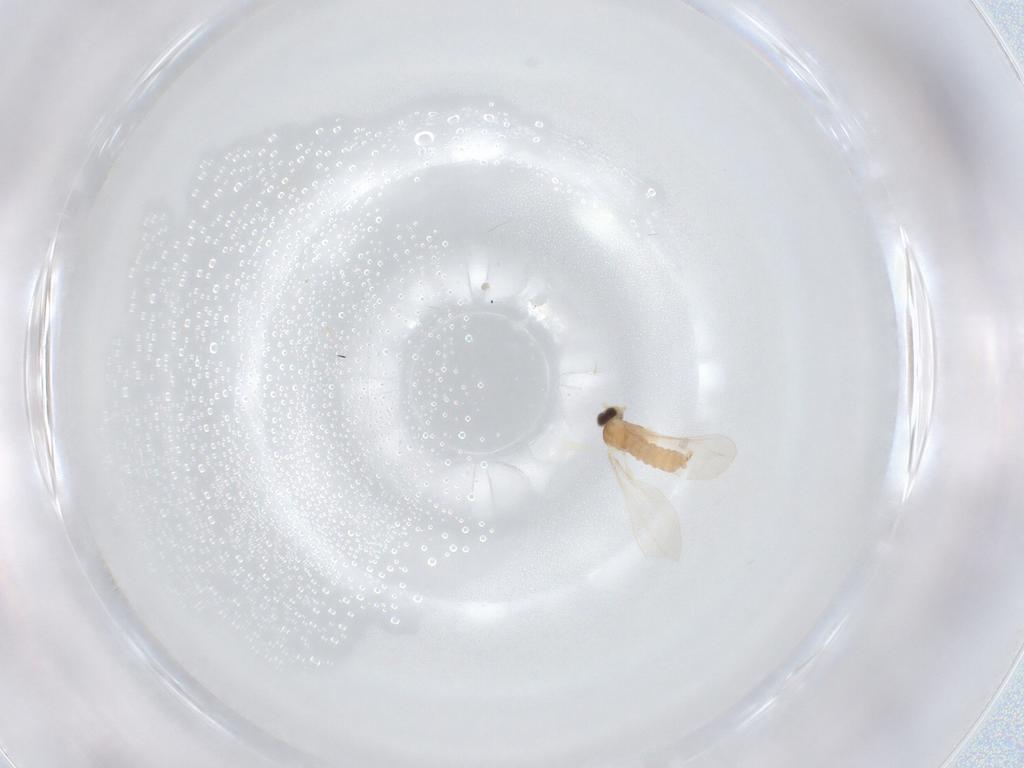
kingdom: Animalia
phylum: Arthropoda
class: Insecta
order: Diptera
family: Cecidomyiidae
